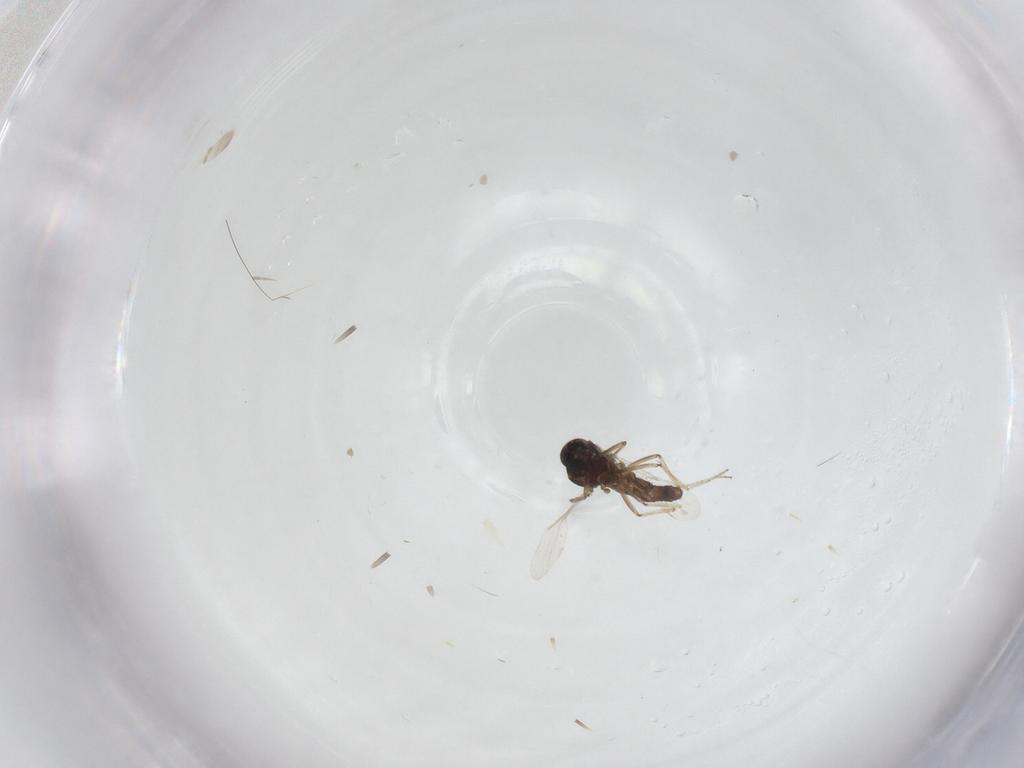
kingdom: Animalia
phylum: Arthropoda
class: Insecta
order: Diptera
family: Ceratopogonidae
